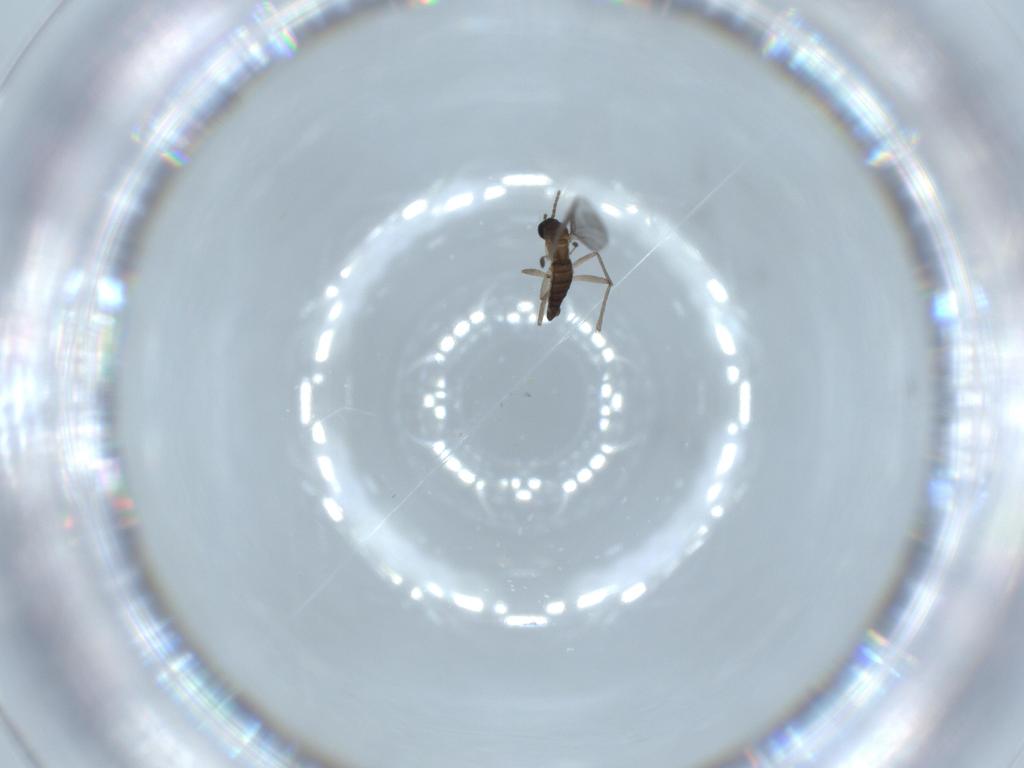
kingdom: Animalia
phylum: Arthropoda
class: Insecta
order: Diptera
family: Sciaridae
